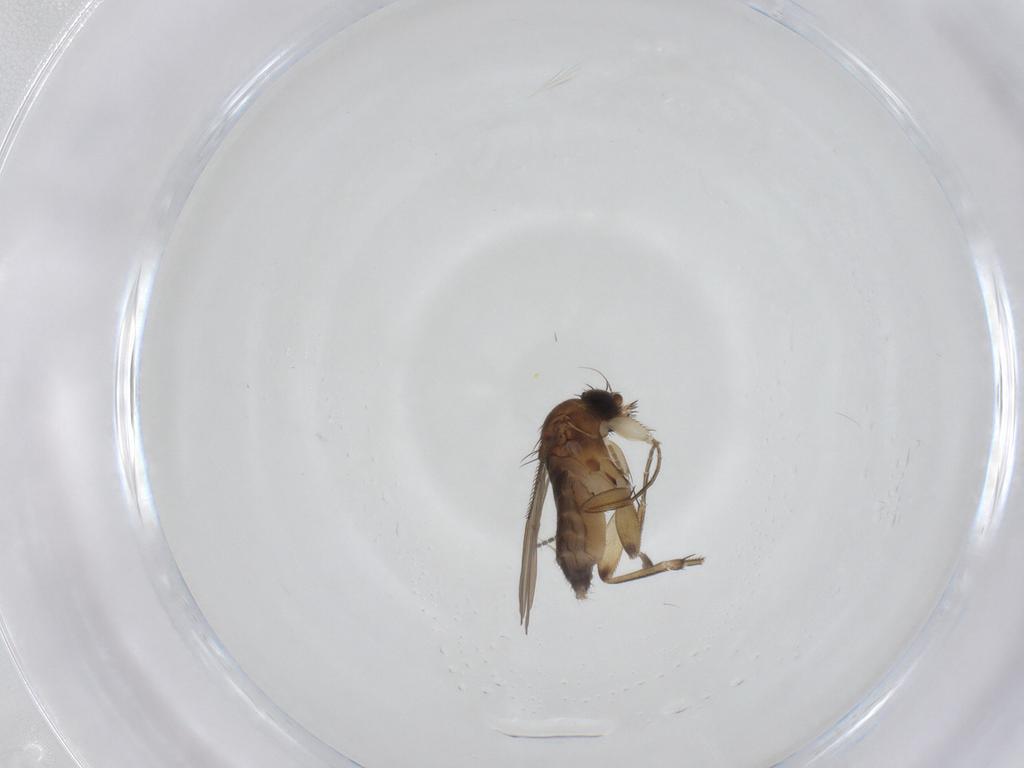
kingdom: Animalia
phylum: Arthropoda
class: Insecta
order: Diptera
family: Phoridae
